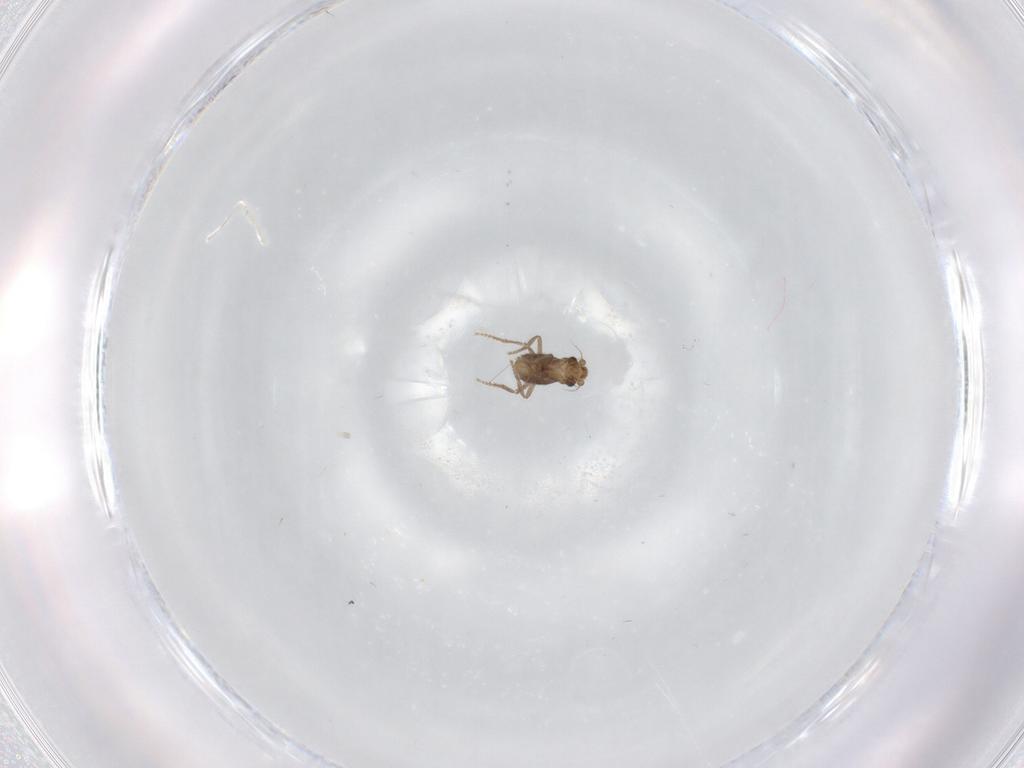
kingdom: Animalia
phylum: Arthropoda
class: Insecta
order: Diptera
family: Phoridae
